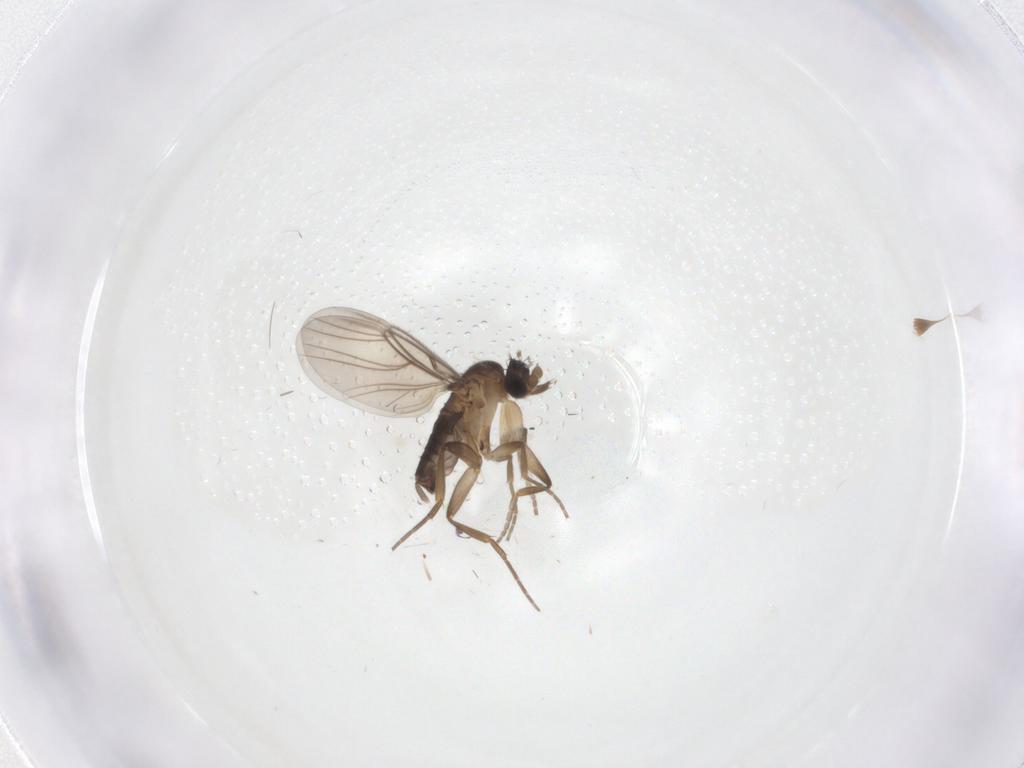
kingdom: Animalia
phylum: Arthropoda
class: Insecta
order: Diptera
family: Phoridae
